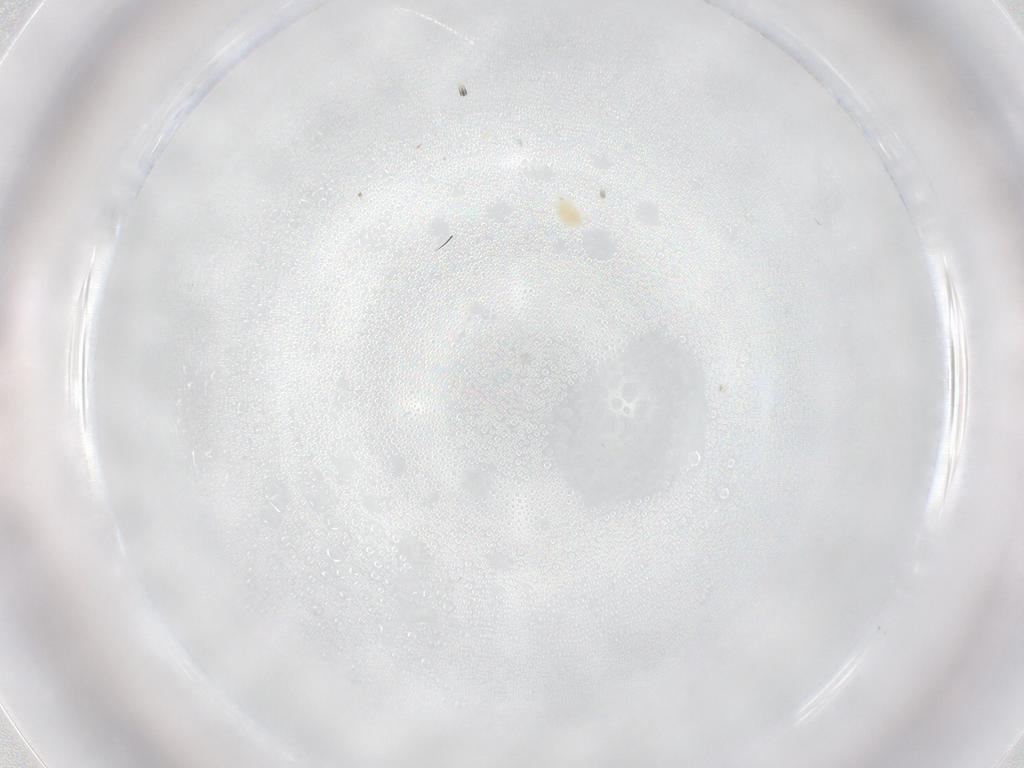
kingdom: Animalia
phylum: Arthropoda
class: Arachnida
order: Trombidiformes
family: Tetranychidae
